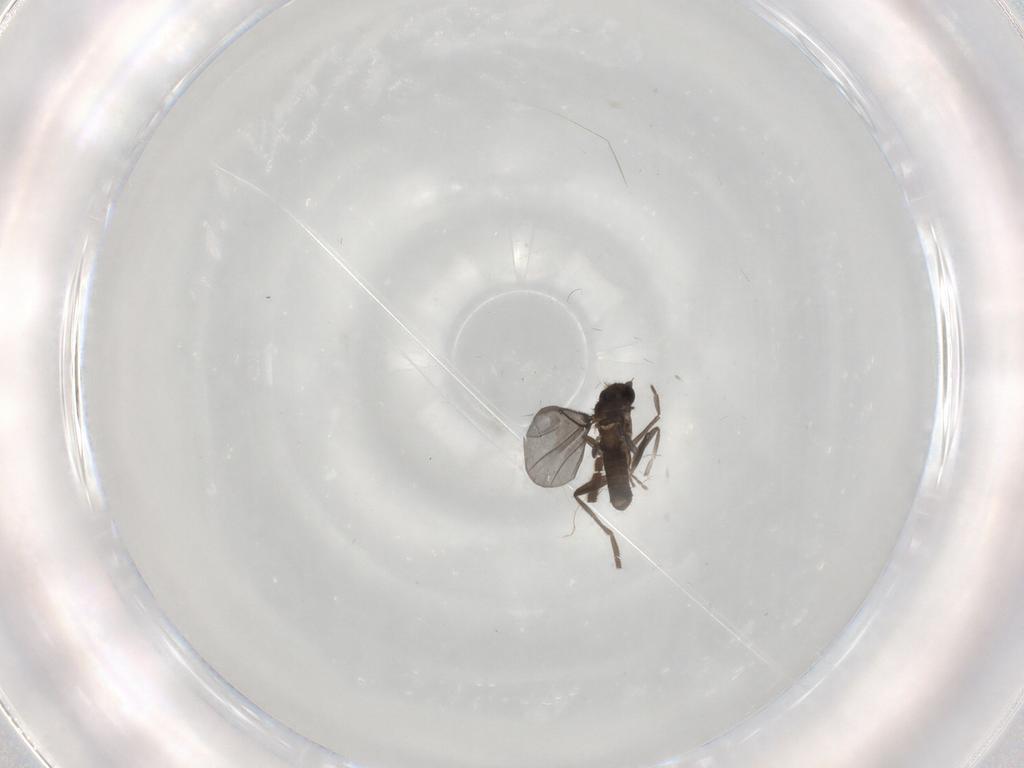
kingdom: Animalia
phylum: Arthropoda
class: Insecta
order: Diptera
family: Phoridae
